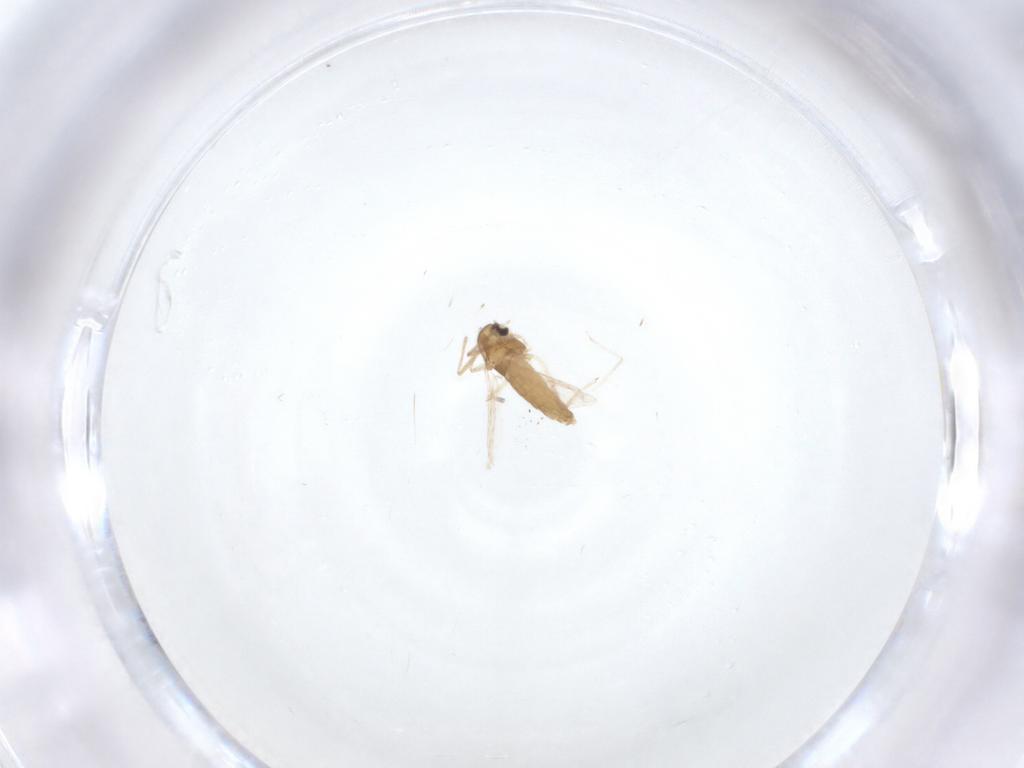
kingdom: Animalia
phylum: Arthropoda
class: Insecta
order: Diptera
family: Chironomidae
